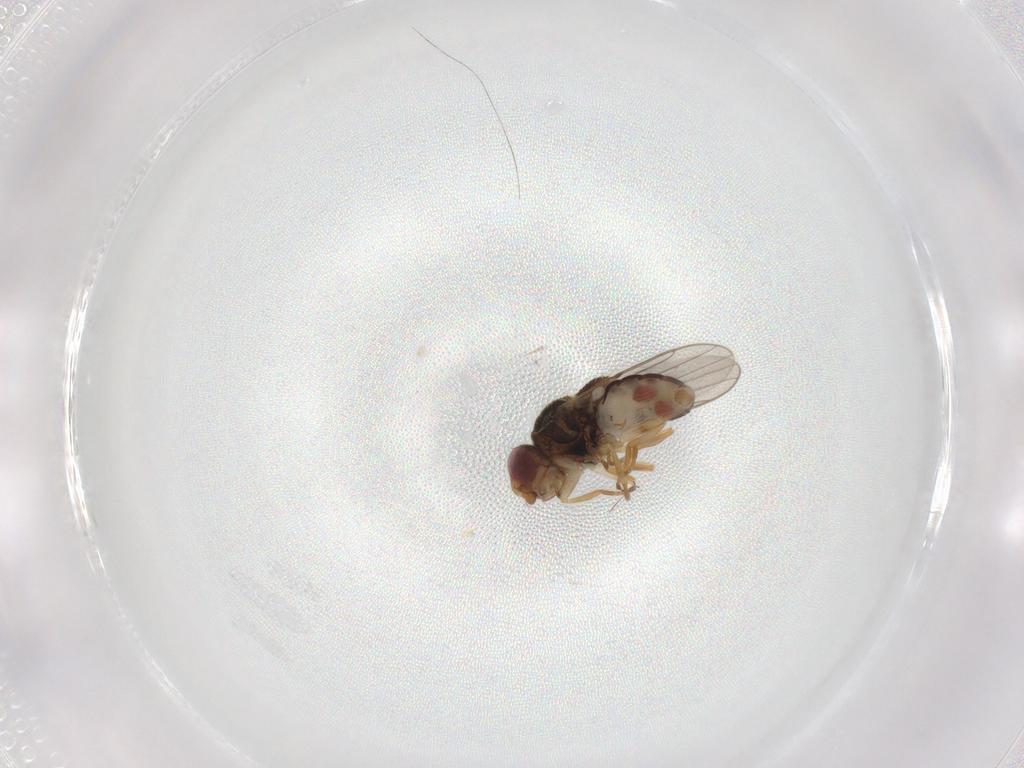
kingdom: Animalia
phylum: Arthropoda
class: Insecta
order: Diptera
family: Chloropidae
